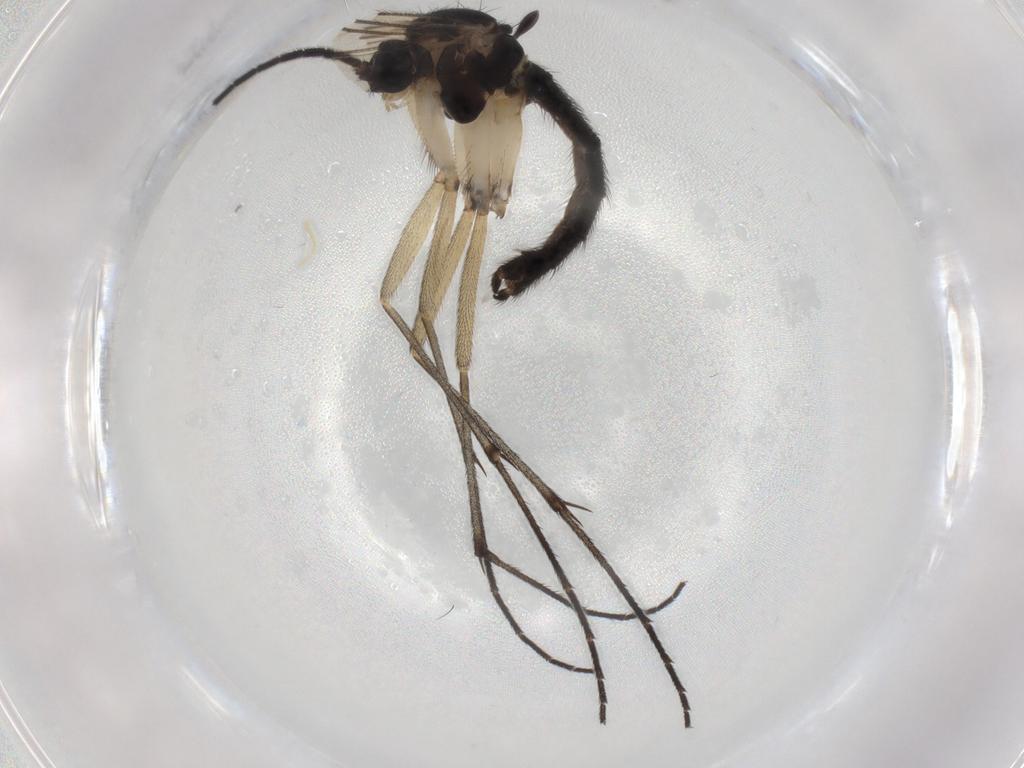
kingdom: Animalia
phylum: Arthropoda
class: Insecta
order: Diptera
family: Sciaridae
